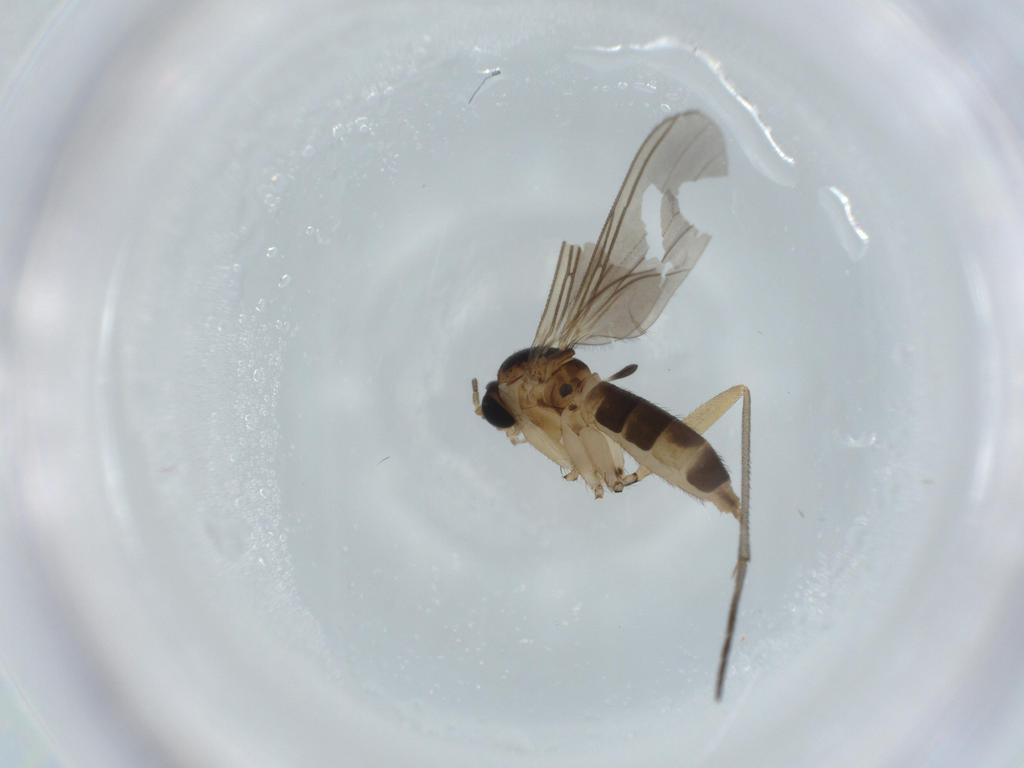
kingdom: Animalia
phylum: Arthropoda
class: Insecta
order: Diptera
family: Sciaridae
